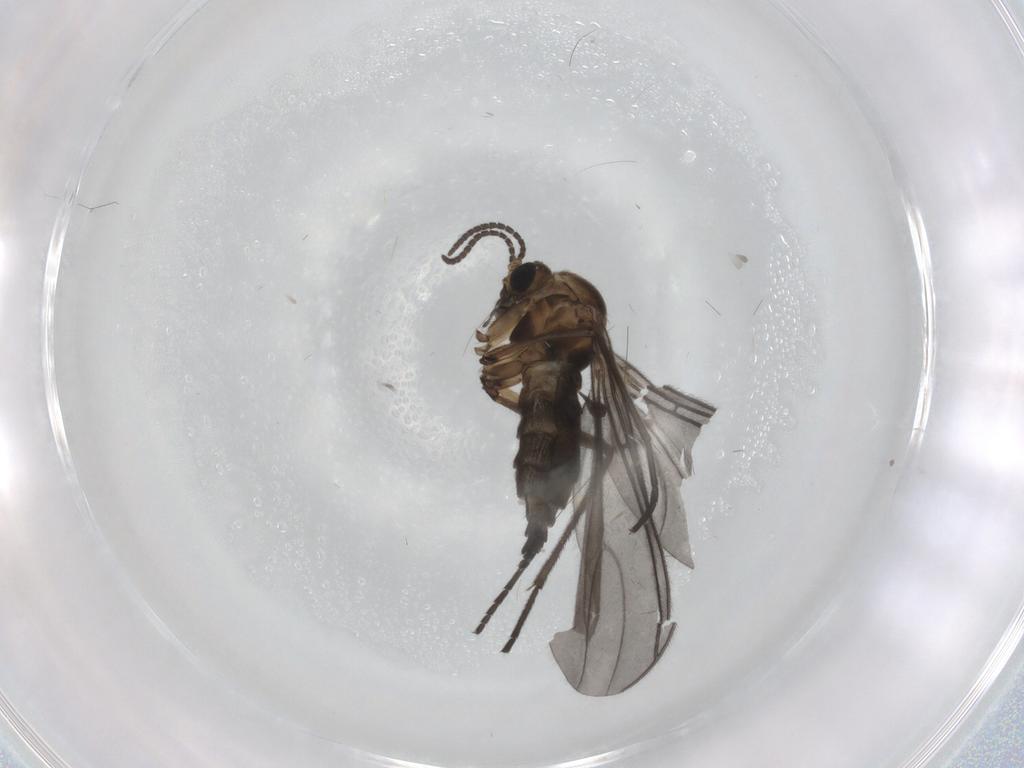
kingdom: Animalia
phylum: Arthropoda
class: Insecta
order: Diptera
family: Sciaridae
